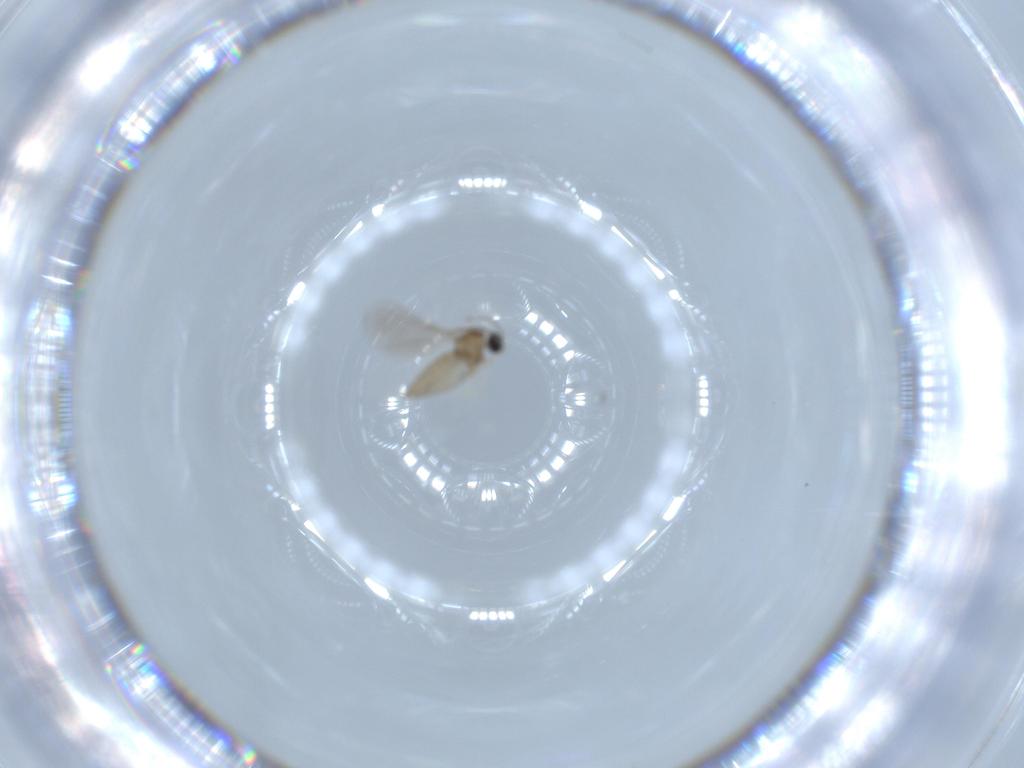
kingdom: Animalia
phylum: Arthropoda
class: Insecta
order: Diptera
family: Cecidomyiidae
